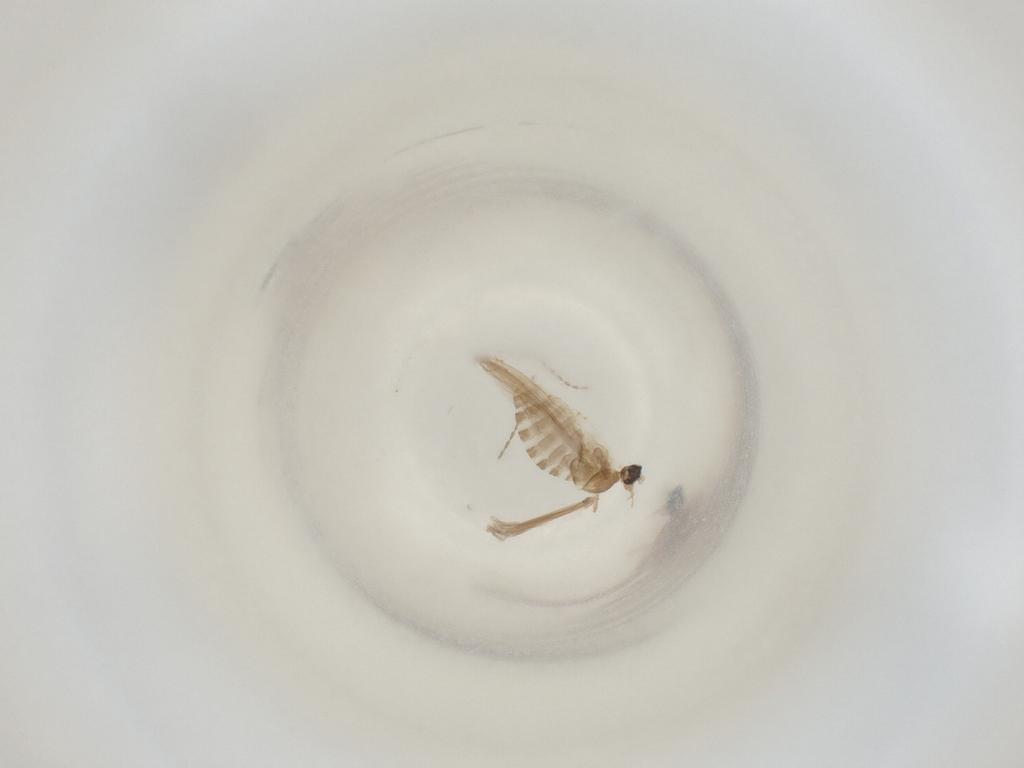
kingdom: Animalia
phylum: Arthropoda
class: Insecta
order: Diptera
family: Cecidomyiidae
